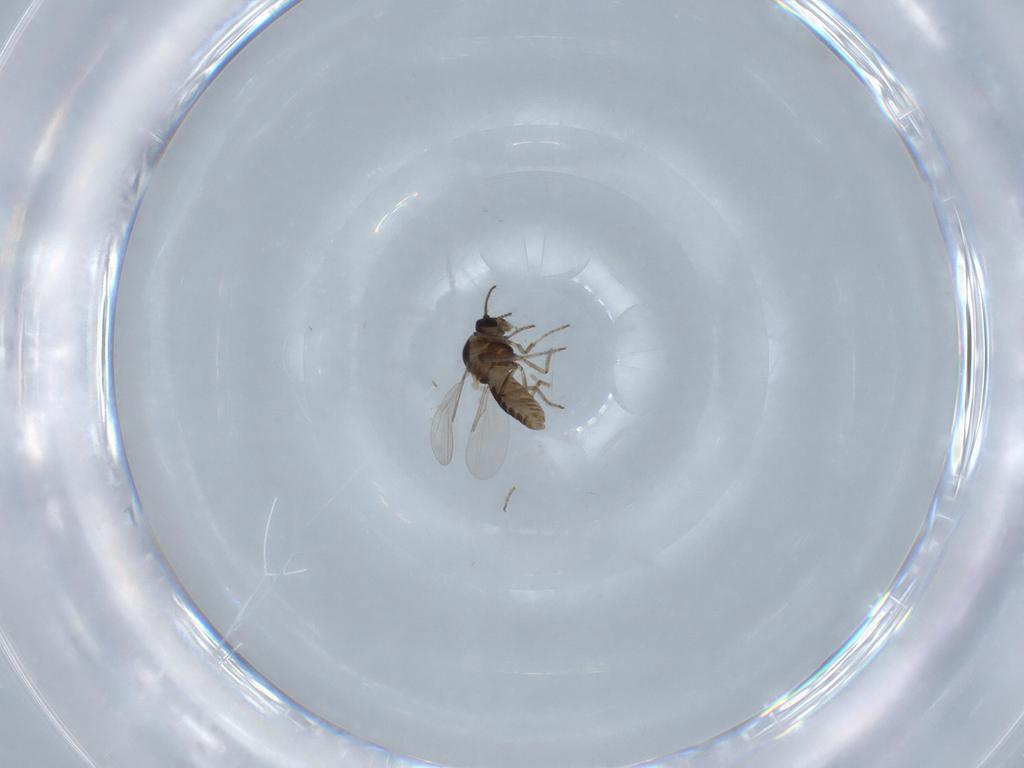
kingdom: Animalia
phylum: Arthropoda
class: Insecta
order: Diptera
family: Ceratopogonidae
